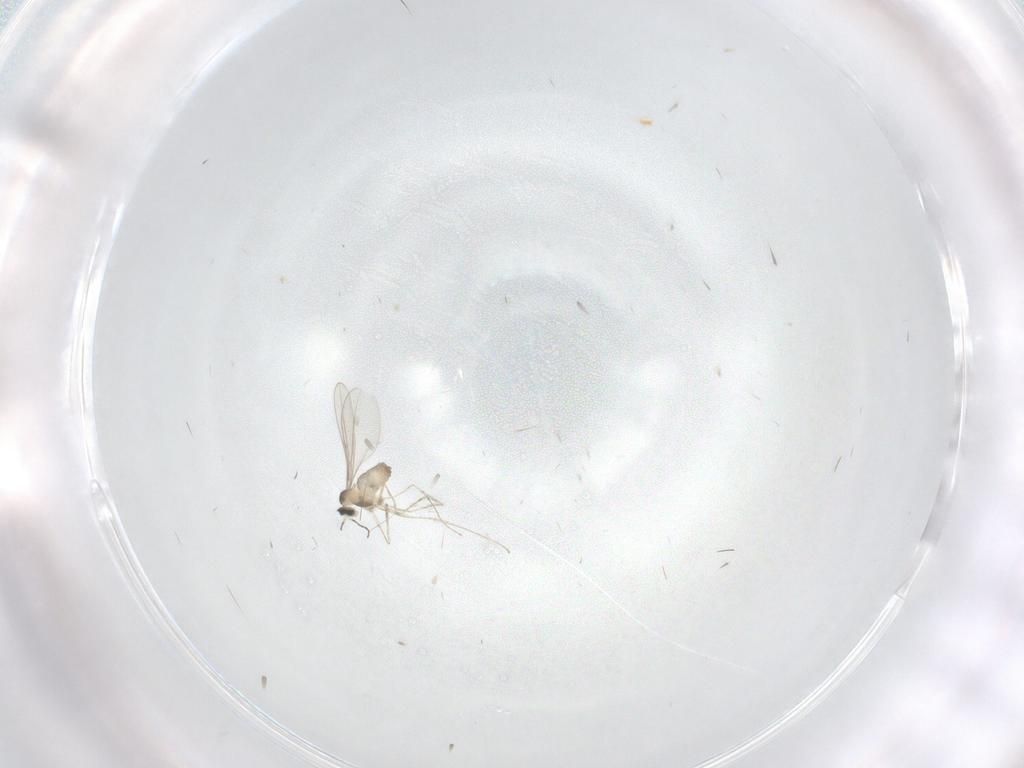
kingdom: Animalia
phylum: Arthropoda
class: Insecta
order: Diptera
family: Cecidomyiidae
